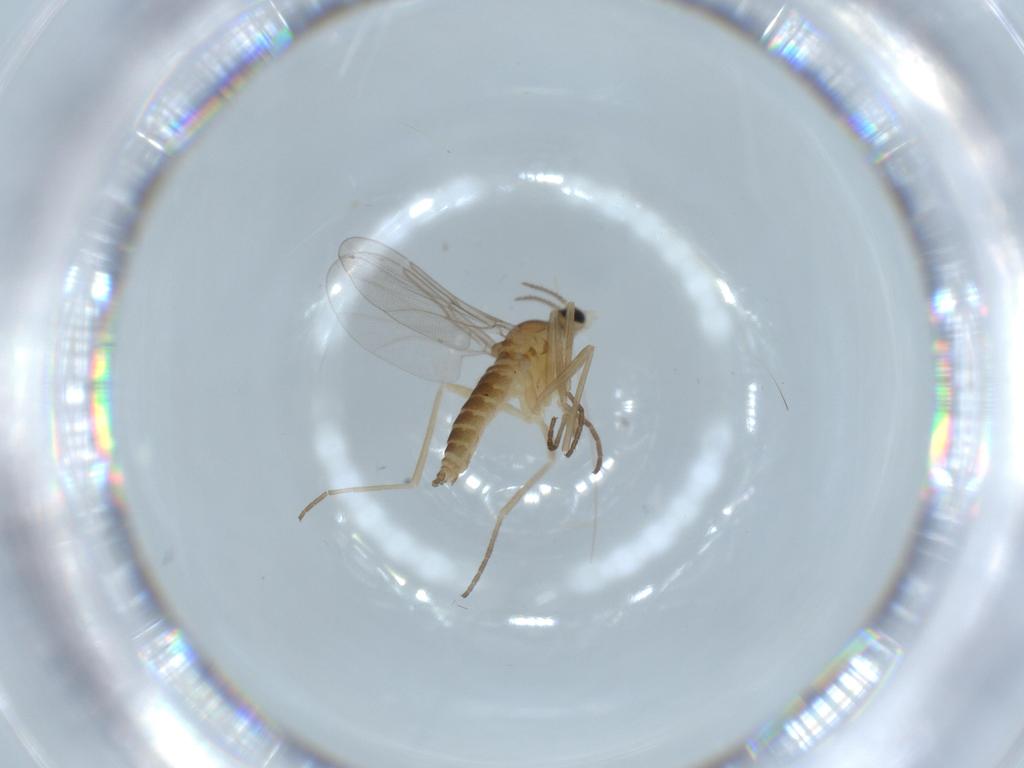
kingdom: Animalia
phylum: Arthropoda
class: Insecta
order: Diptera
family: Cecidomyiidae
